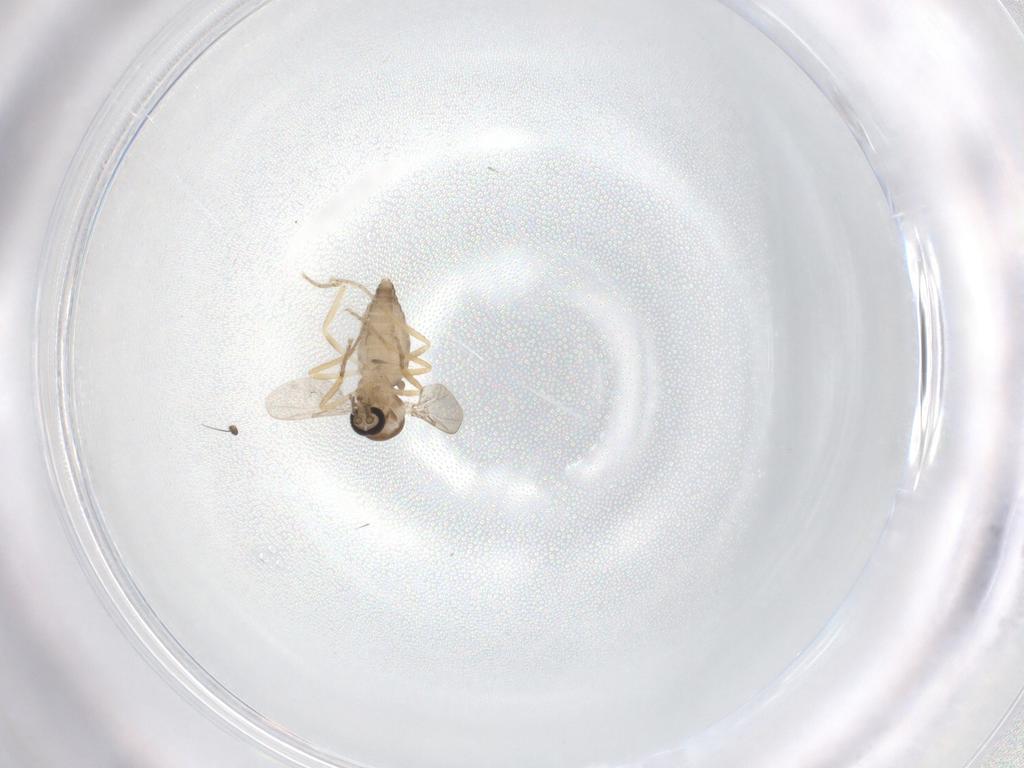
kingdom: Animalia
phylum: Arthropoda
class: Insecta
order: Diptera
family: Ceratopogonidae
